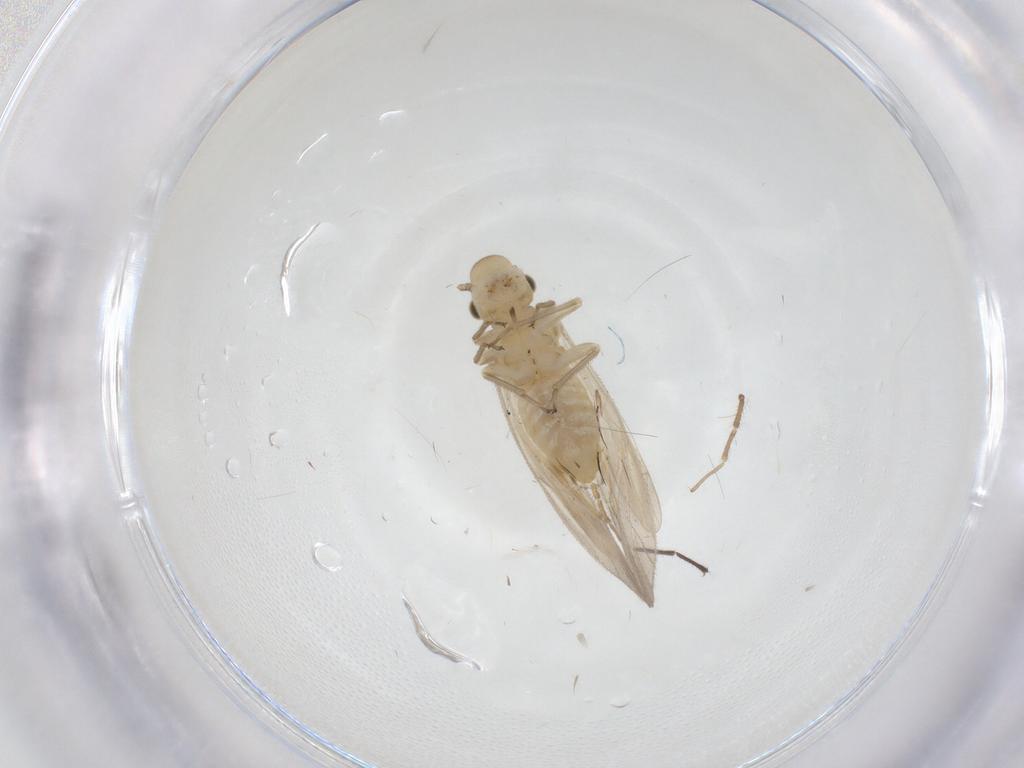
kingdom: Animalia
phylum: Arthropoda
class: Insecta
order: Psocodea
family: Caeciliusidae
